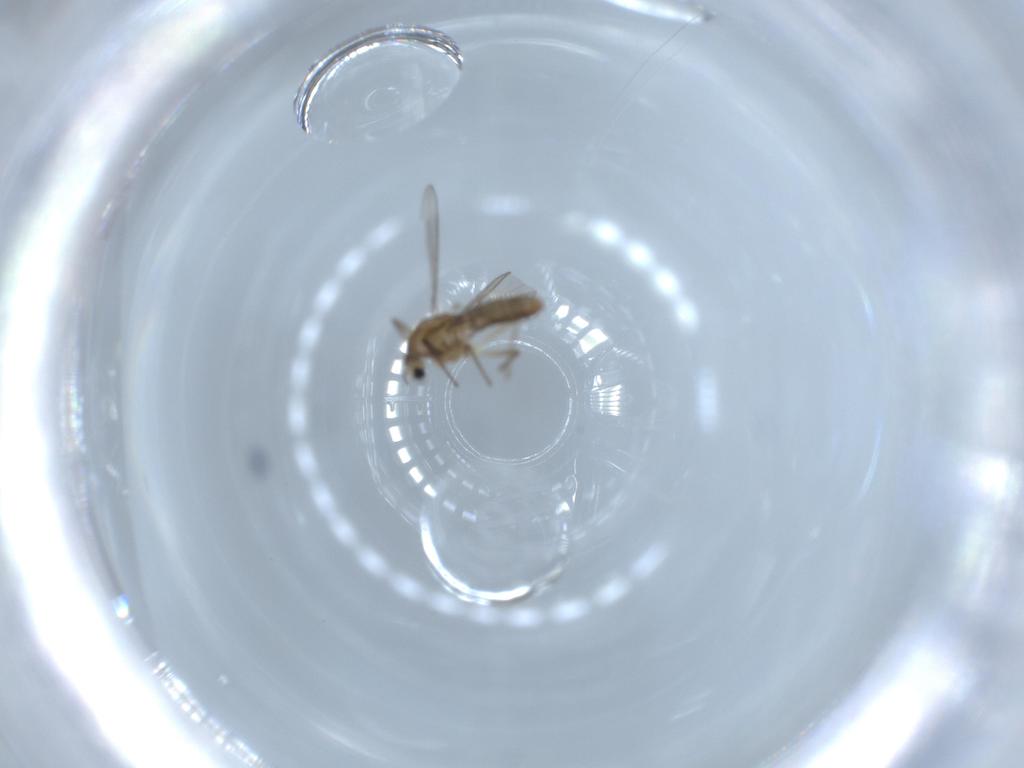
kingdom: Animalia
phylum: Arthropoda
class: Insecta
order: Diptera
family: Chironomidae
